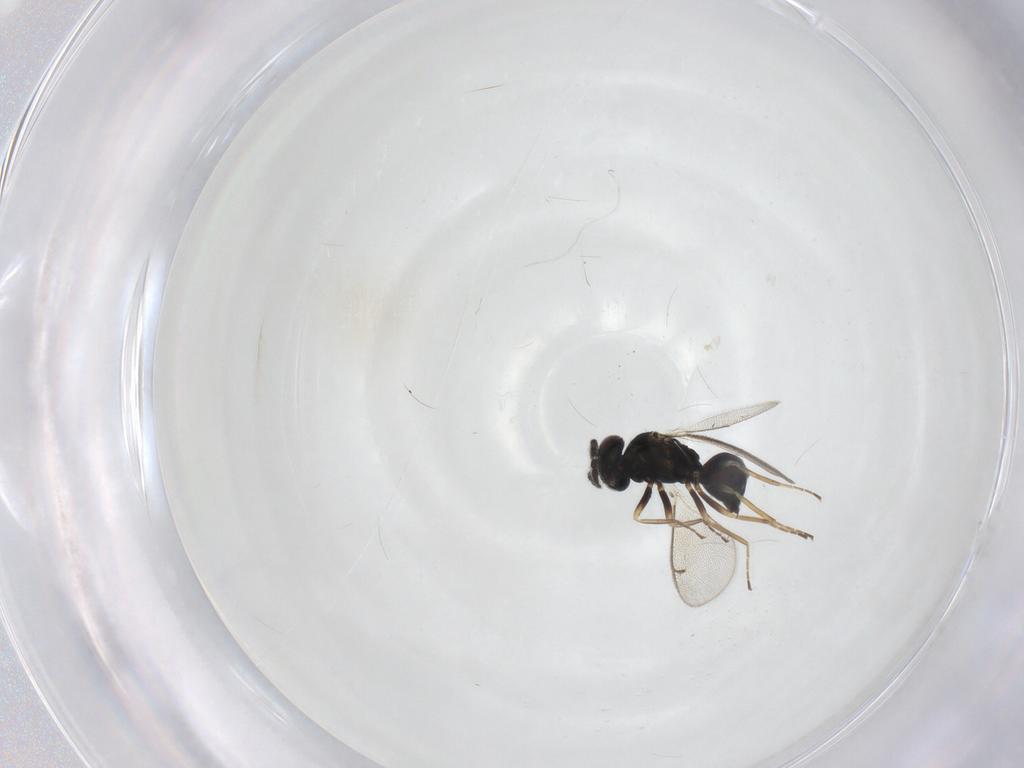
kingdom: Animalia
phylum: Arthropoda
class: Insecta
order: Hymenoptera
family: Eulophidae
